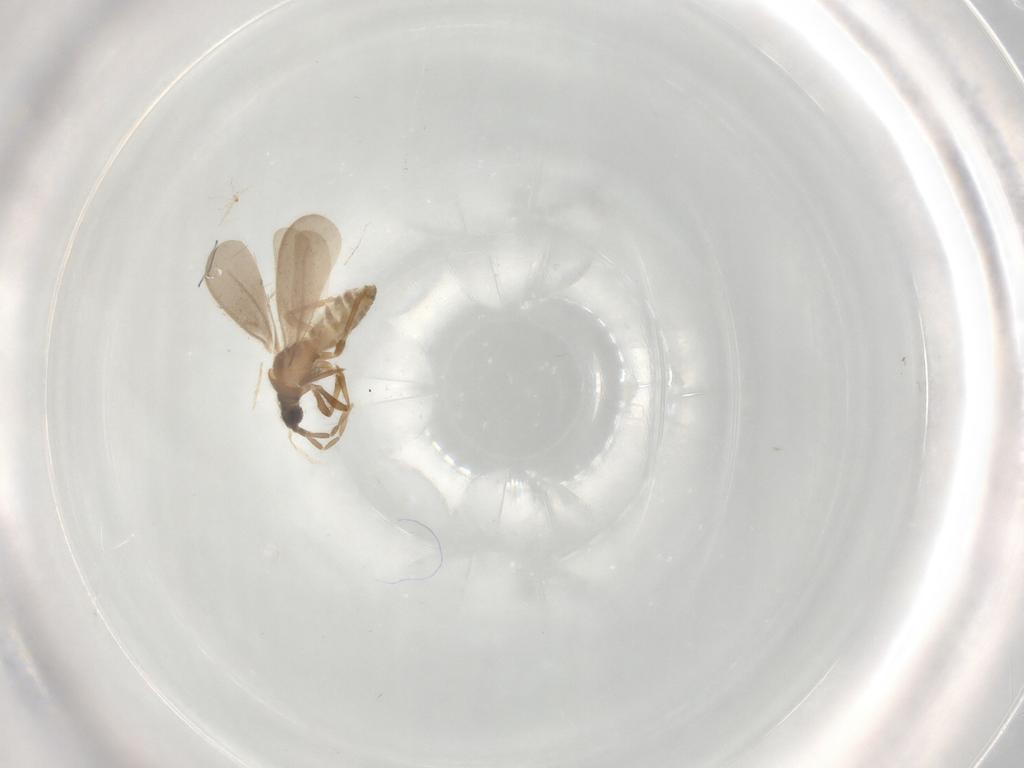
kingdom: Animalia
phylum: Arthropoda
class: Insecta
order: Hemiptera
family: Enicocephalidae
